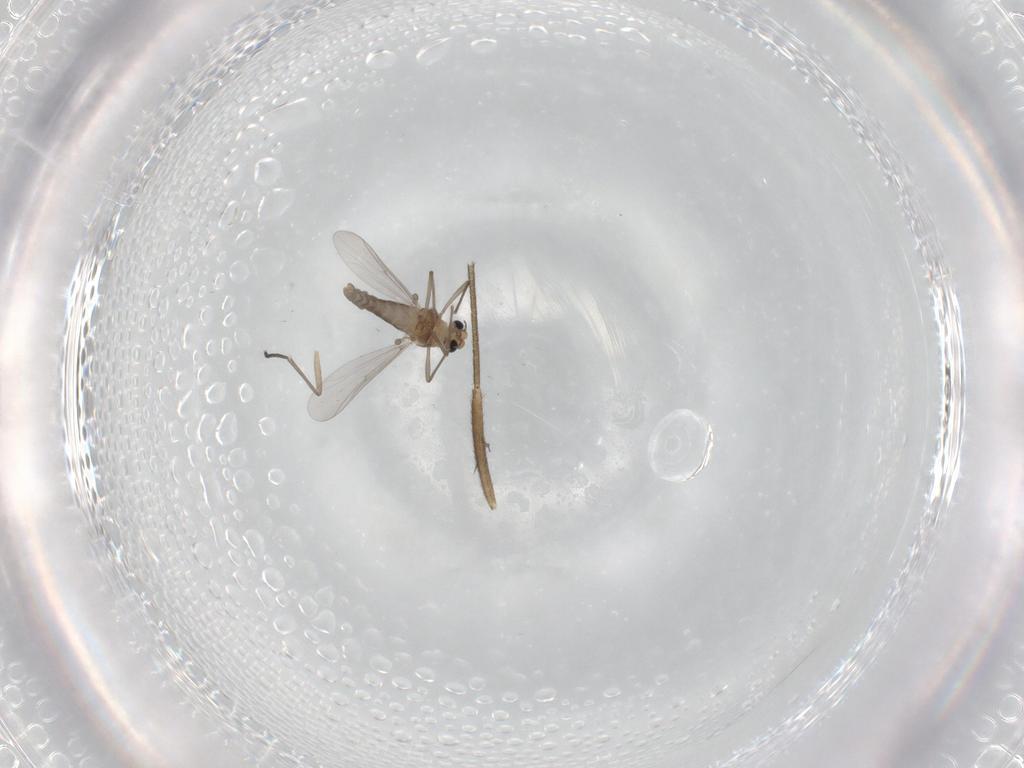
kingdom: Animalia
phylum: Arthropoda
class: Insecta
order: Diptera
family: Chironomidae
